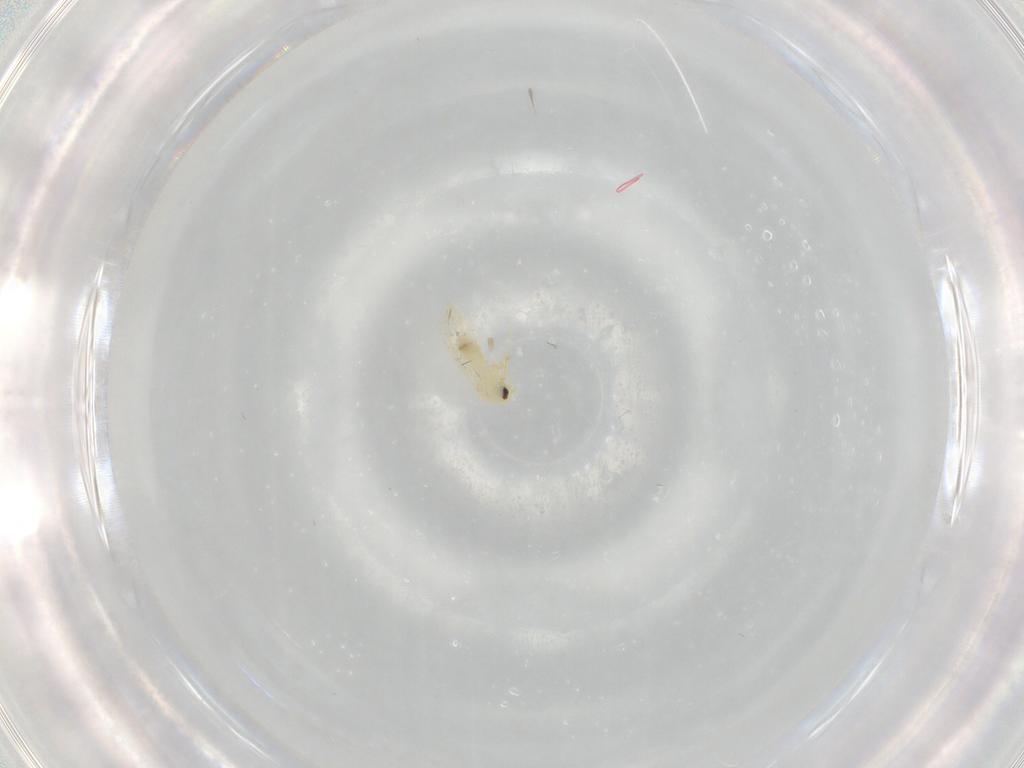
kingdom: Animalia
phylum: Arthropoda
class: Insecta
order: Hemiptera
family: Aleyrodidae
